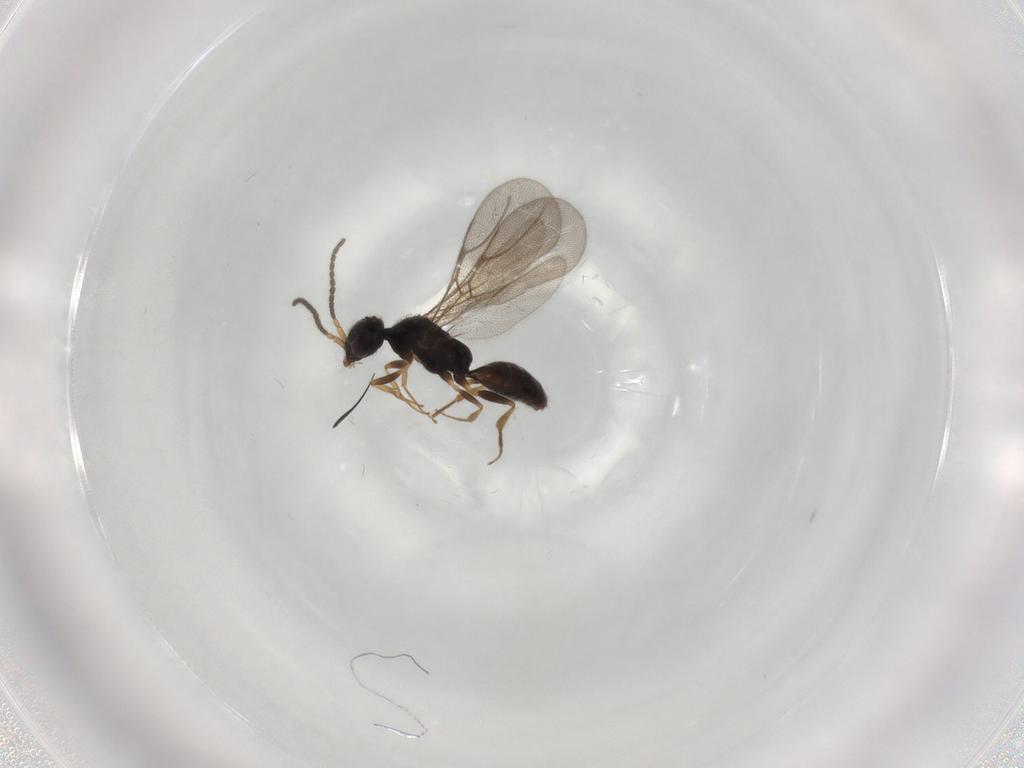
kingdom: Animalia
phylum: Arthropoda
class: Insecta
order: Hymenoptera
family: Bethylidae
